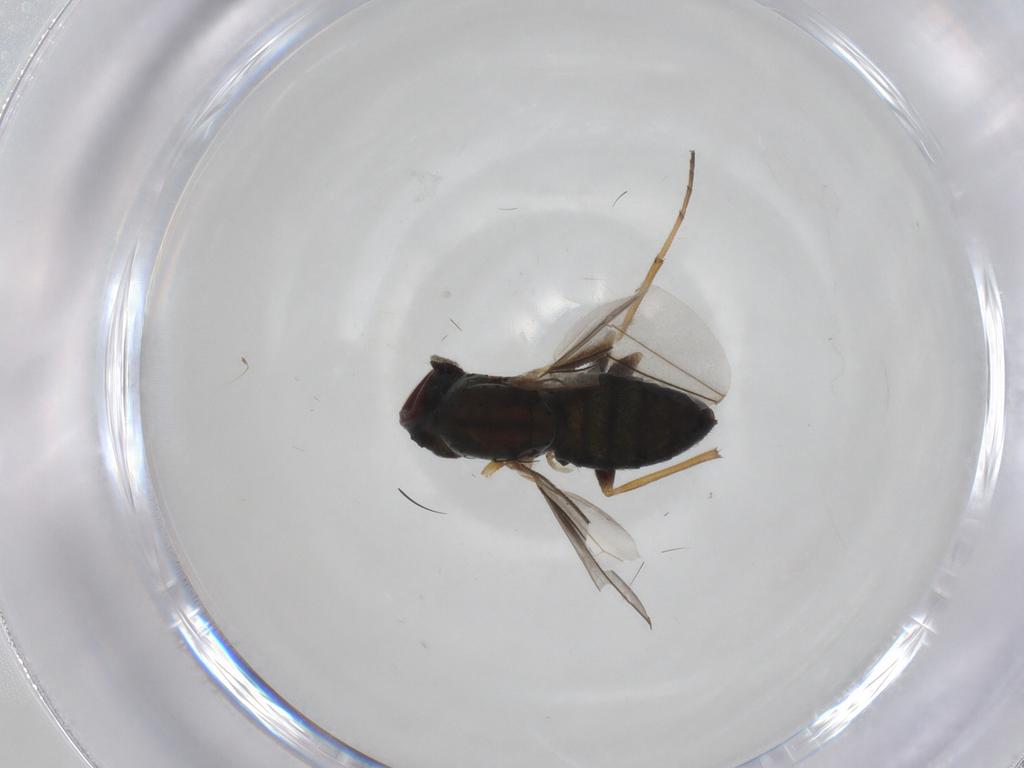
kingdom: Animalia
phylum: Arthropoda
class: Insecta
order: Diptera
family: Dolichopodidae
